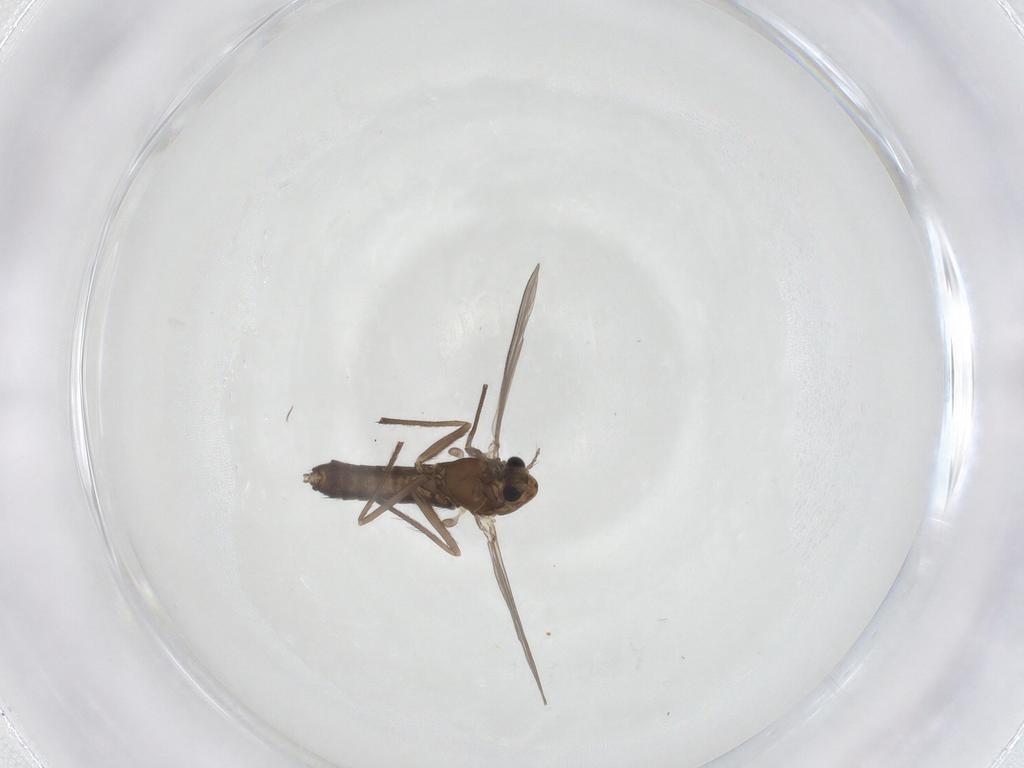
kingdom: Animalia
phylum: Arthropoda
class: Insecta
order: Diptera
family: Chironomidae
